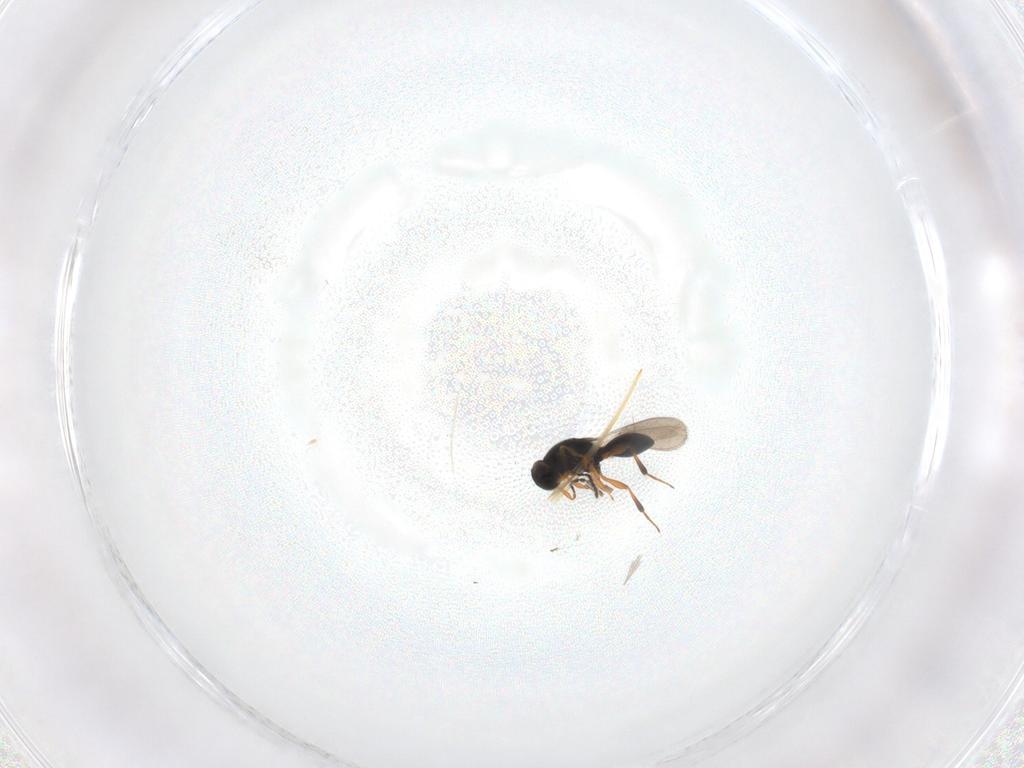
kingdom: Animalia
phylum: Arthropoda
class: Insecta
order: Hymenoptera
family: Platygastridae
